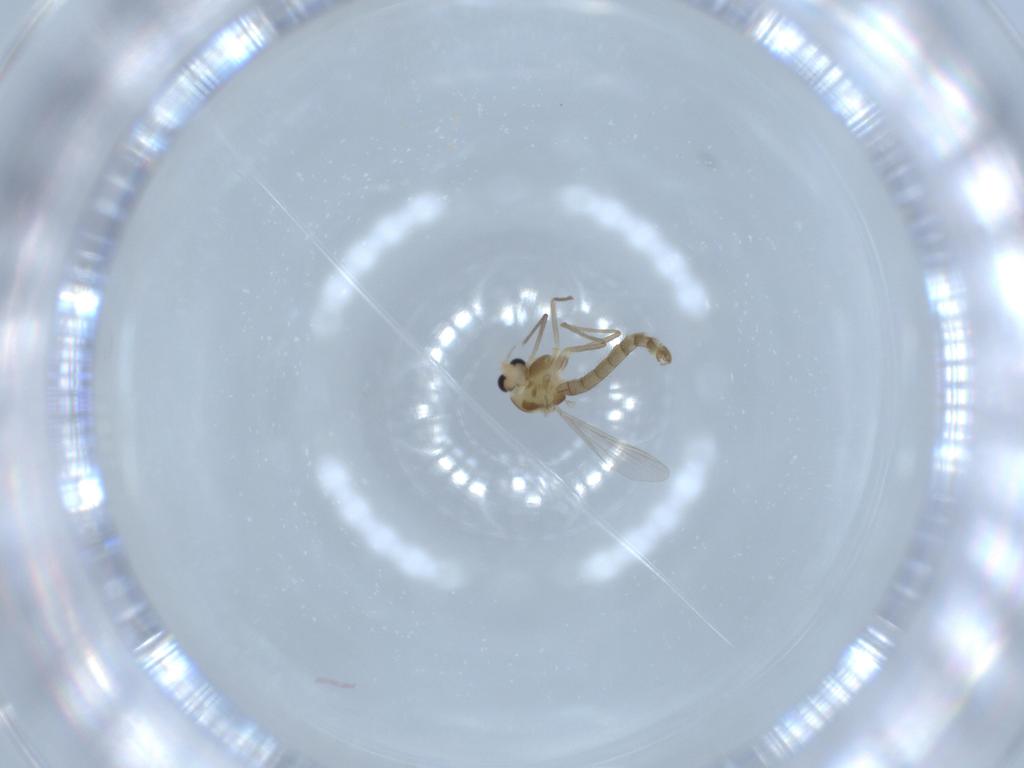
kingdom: Animalia
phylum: Arthropoda
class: Insecta
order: Diptera
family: Chironomidae
